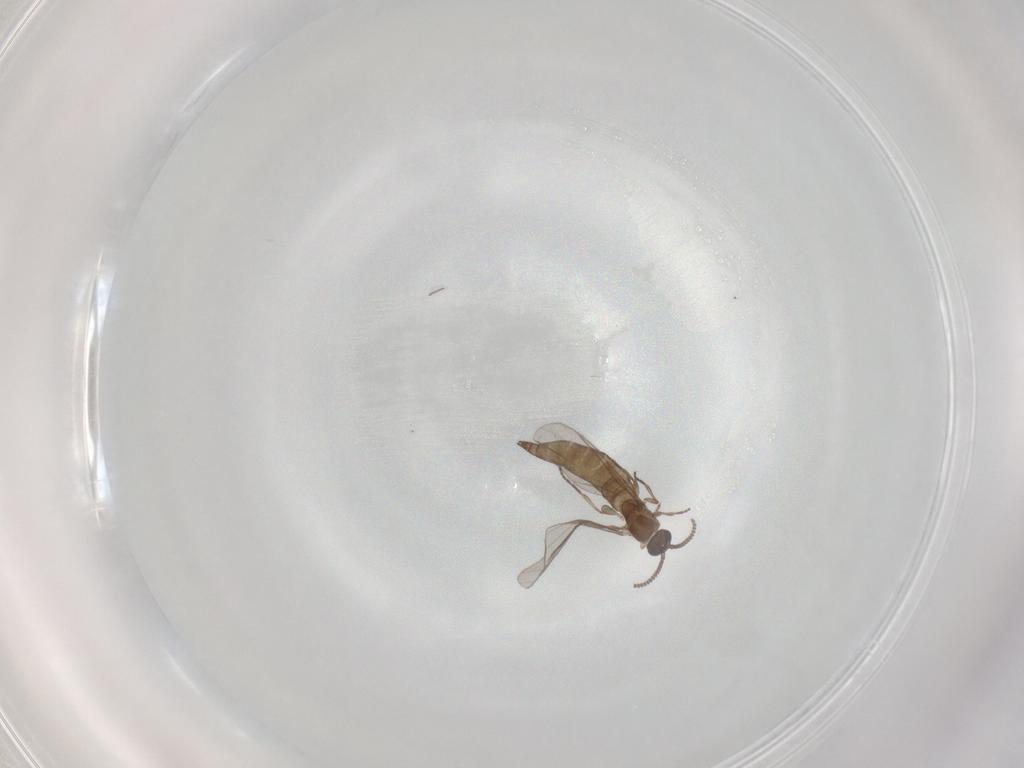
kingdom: Animalia
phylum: Arthropoda
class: Insecta
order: Diptera
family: Sciaridae
